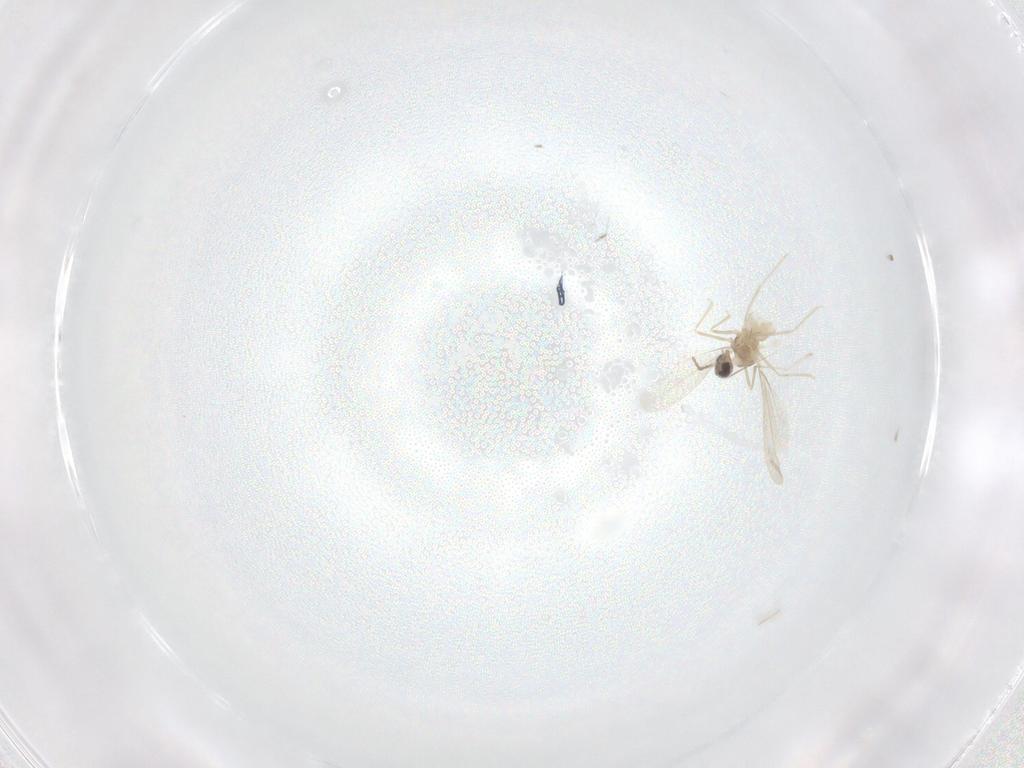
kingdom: Animalia
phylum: Arthropoda
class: Insecta
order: Diptera
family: Cecidomyiidae
